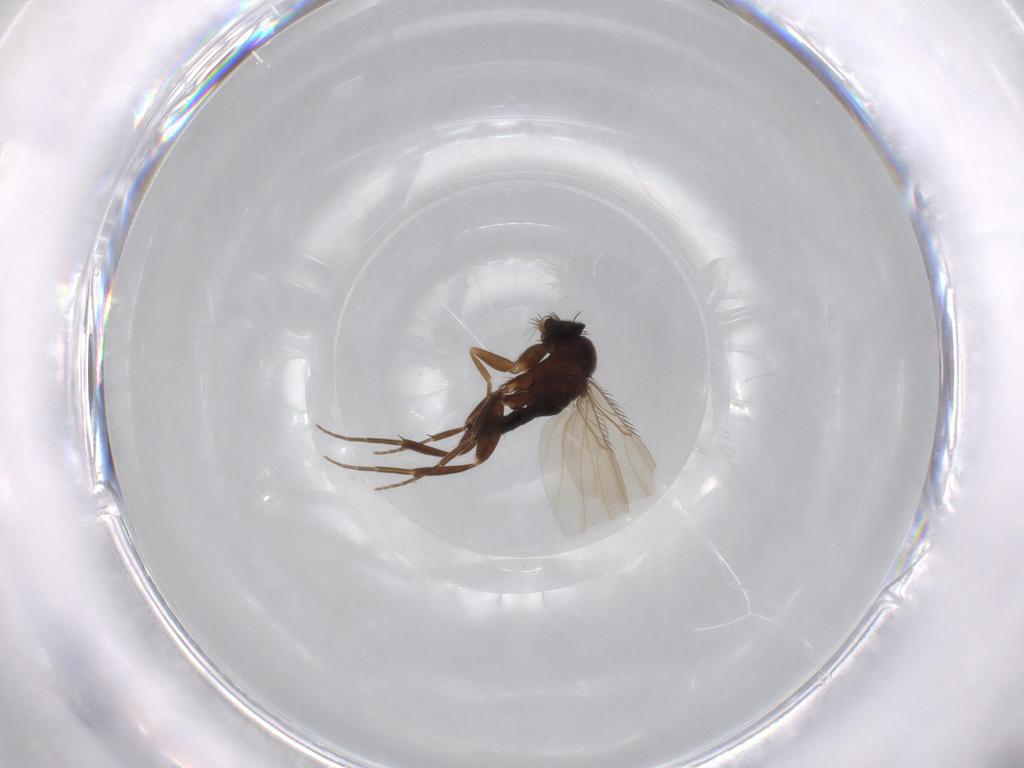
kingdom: Animalia
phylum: Arthropoda
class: Insecta
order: Diptera
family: Phoridae
